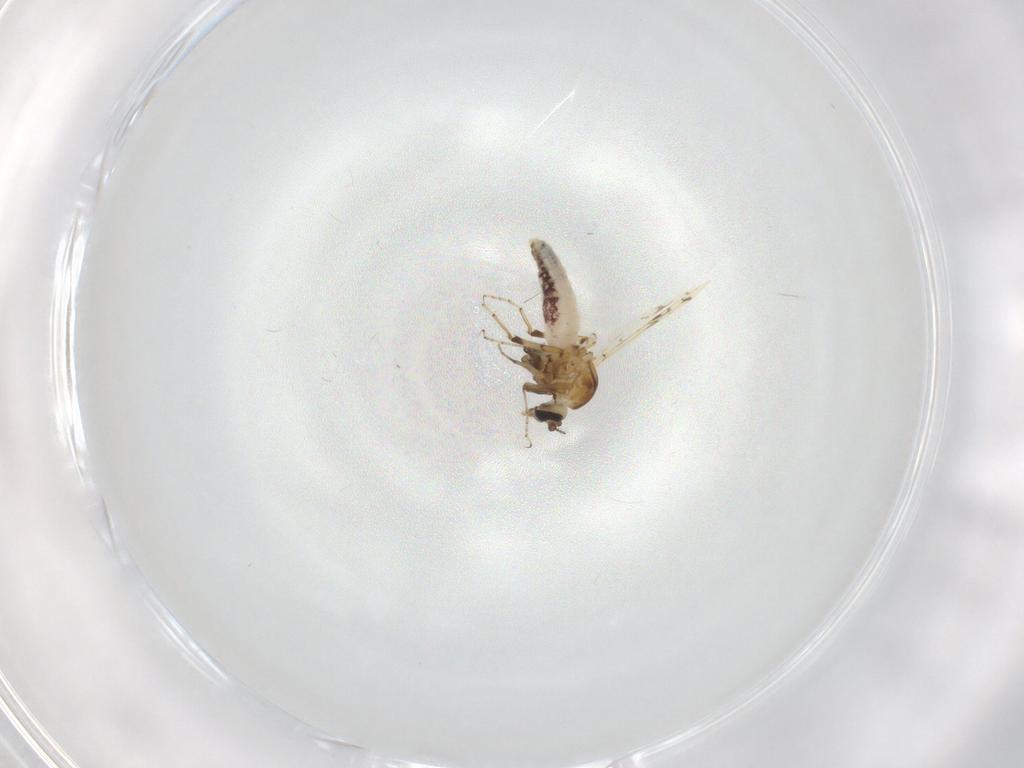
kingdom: Animalia
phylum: Arthropoda
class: Insecta
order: Diptera
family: Ceratopogonidae
